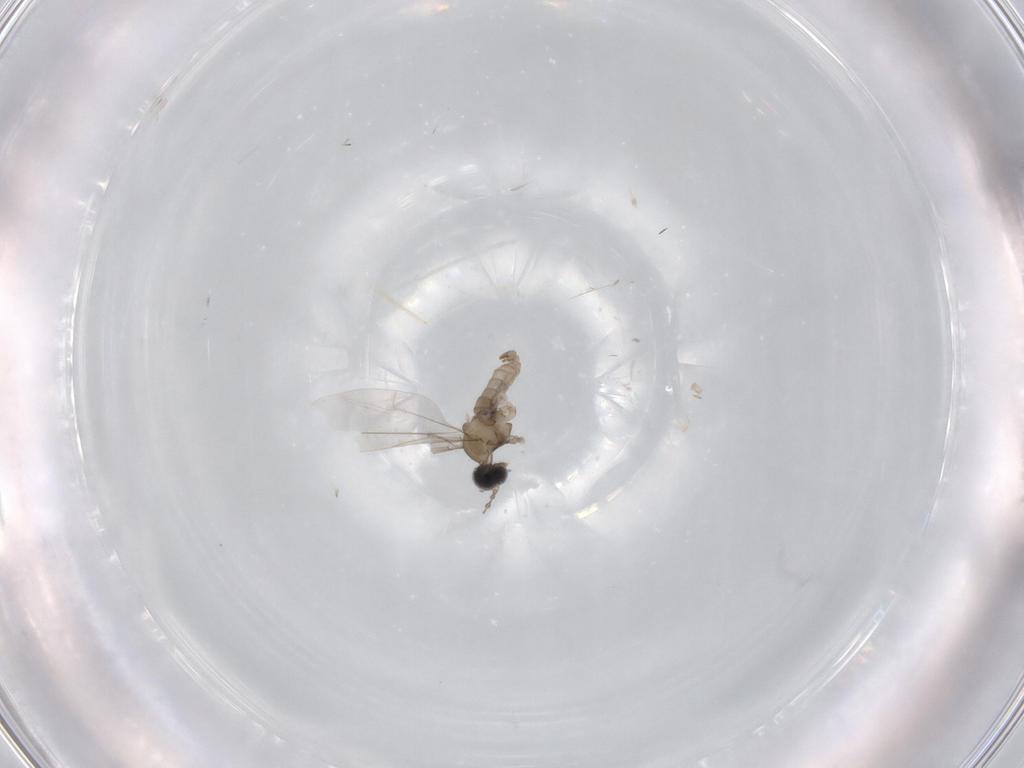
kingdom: Animalia
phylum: Arthropoda
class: Insecta
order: Diptera
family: Cecidomyiidae
